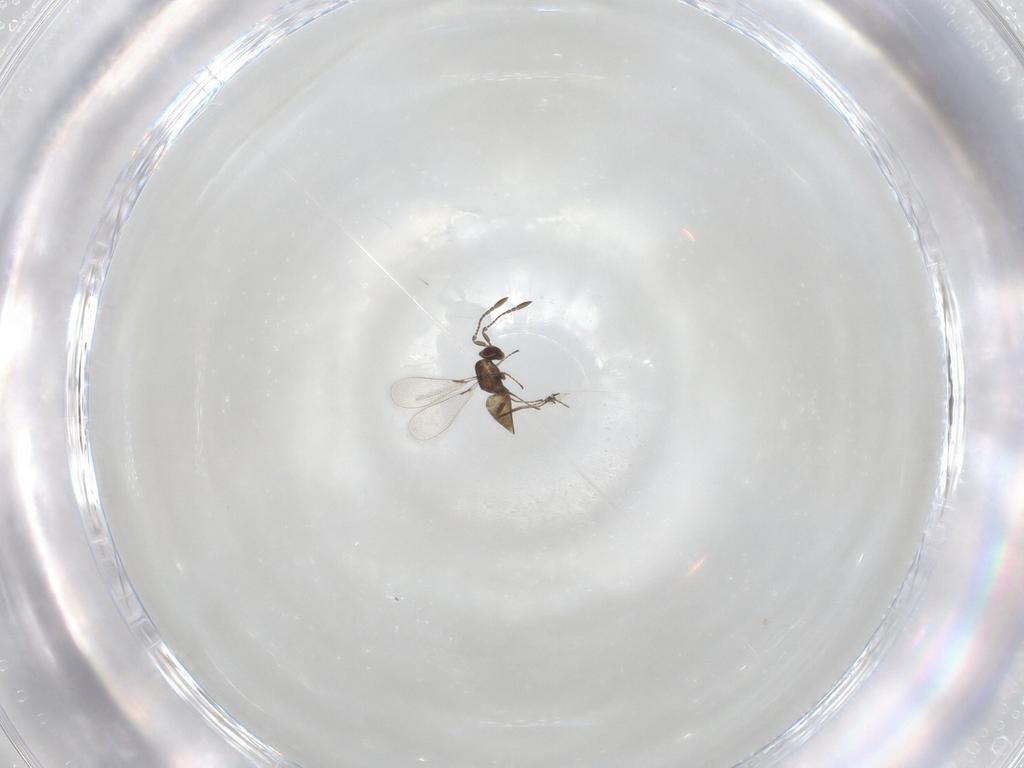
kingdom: Animalia
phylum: Arthropoda
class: Insecta
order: Hymenoptera
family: Mymaridae
